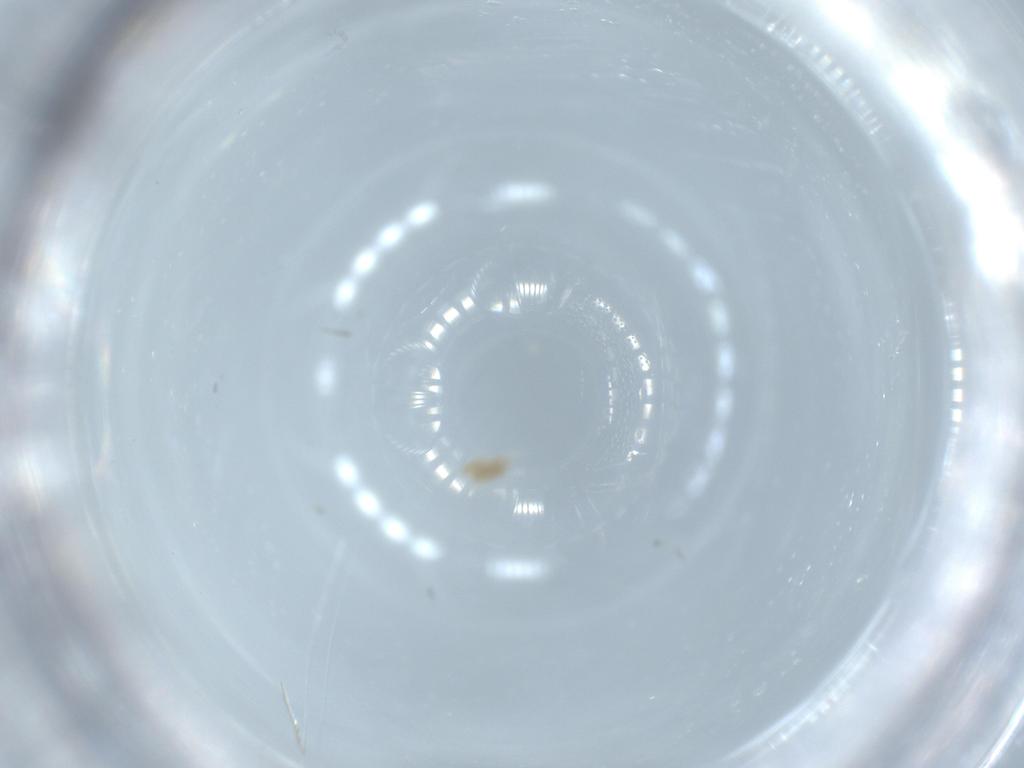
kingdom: Animalia
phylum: Arthropoda
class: Arachnida
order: Trombidiformes
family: Eupodidae
